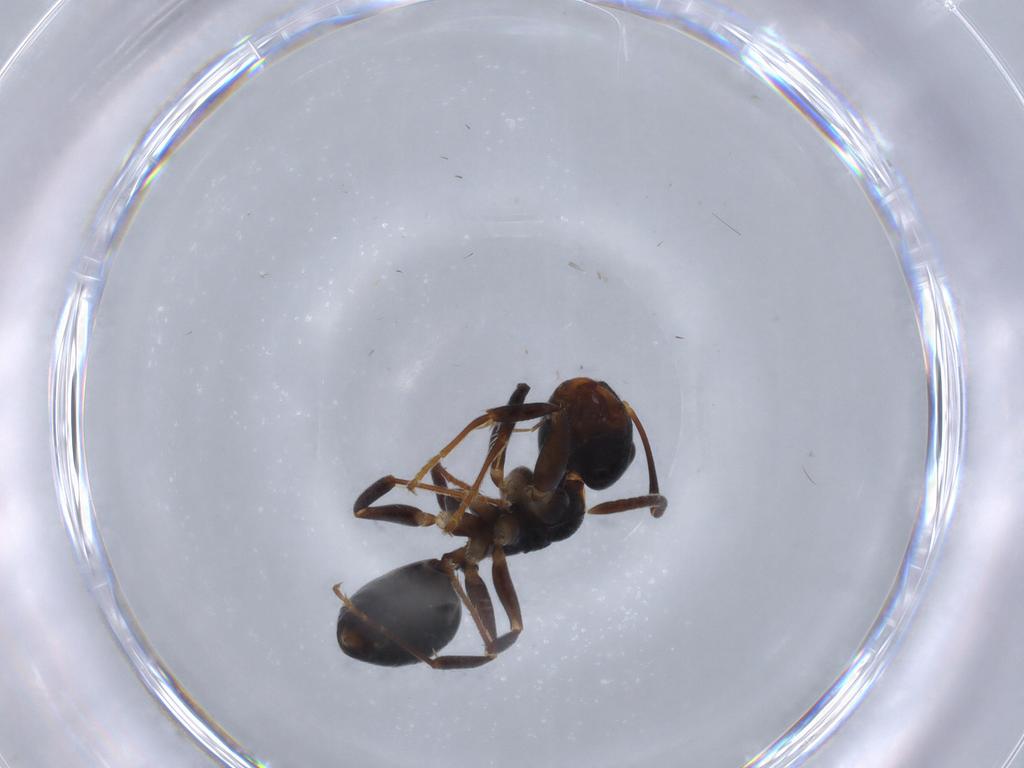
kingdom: Animalia
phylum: Arthropoda
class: Insecta
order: Hymenoptera
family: Formicidae
